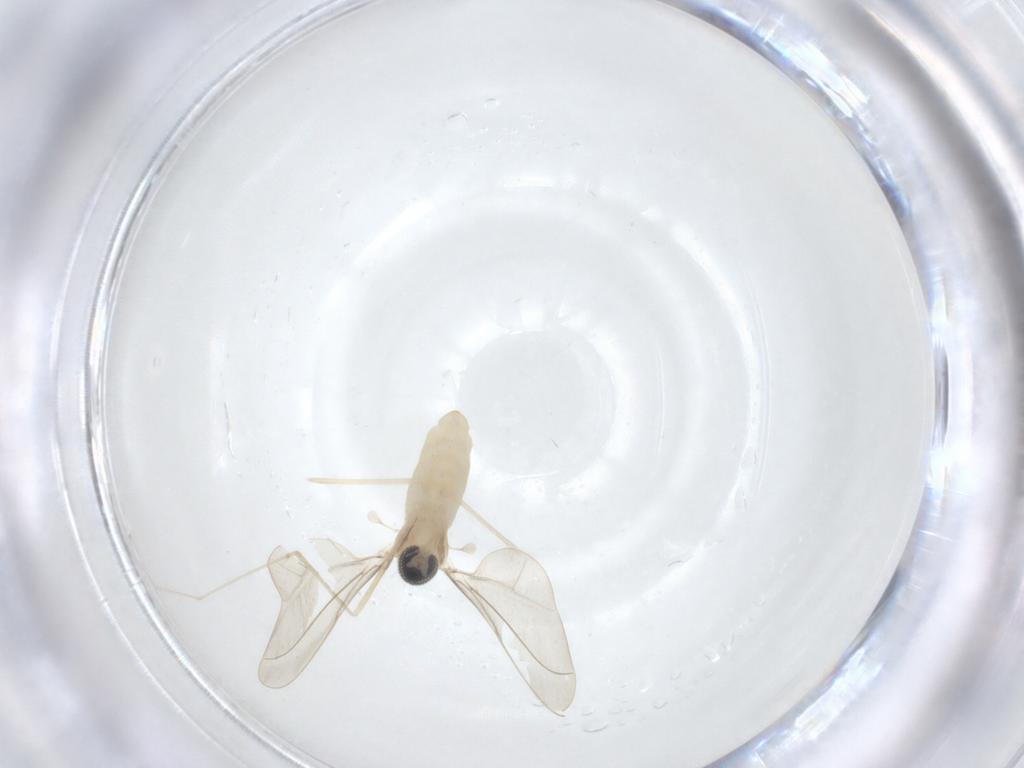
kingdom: Animalia
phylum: Arthropoda
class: Insecta
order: Diptera
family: Cecidomyiidae
